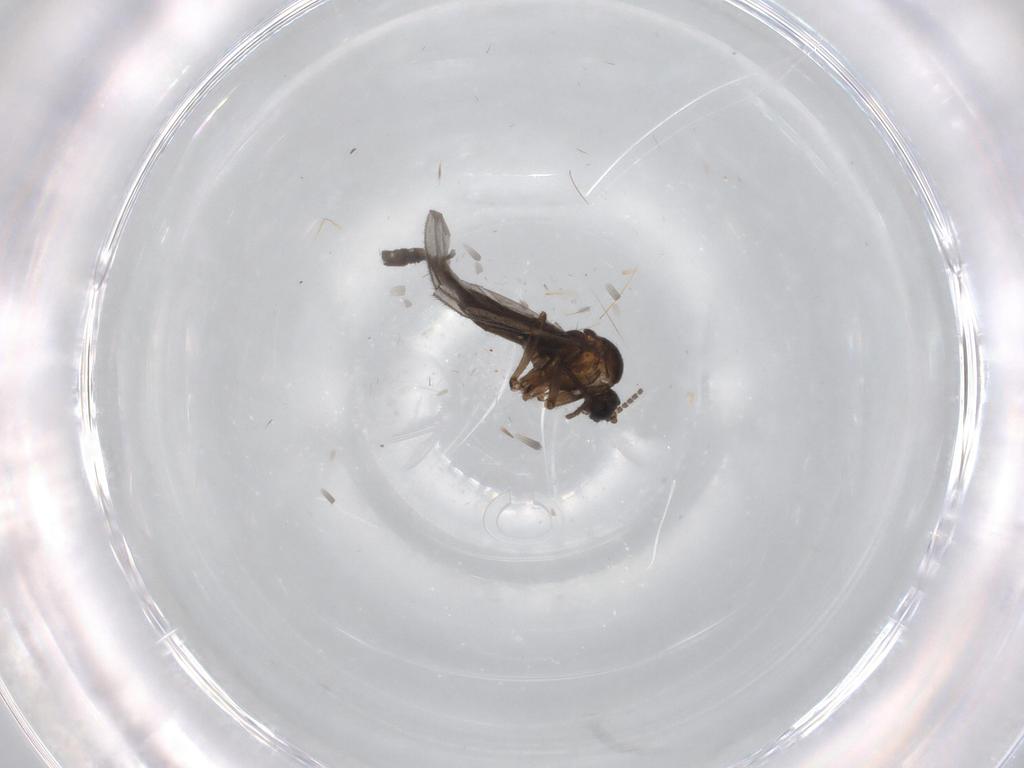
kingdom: Animalia
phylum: Arthropoda
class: Insecta
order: Diptera
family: Sciaridae
